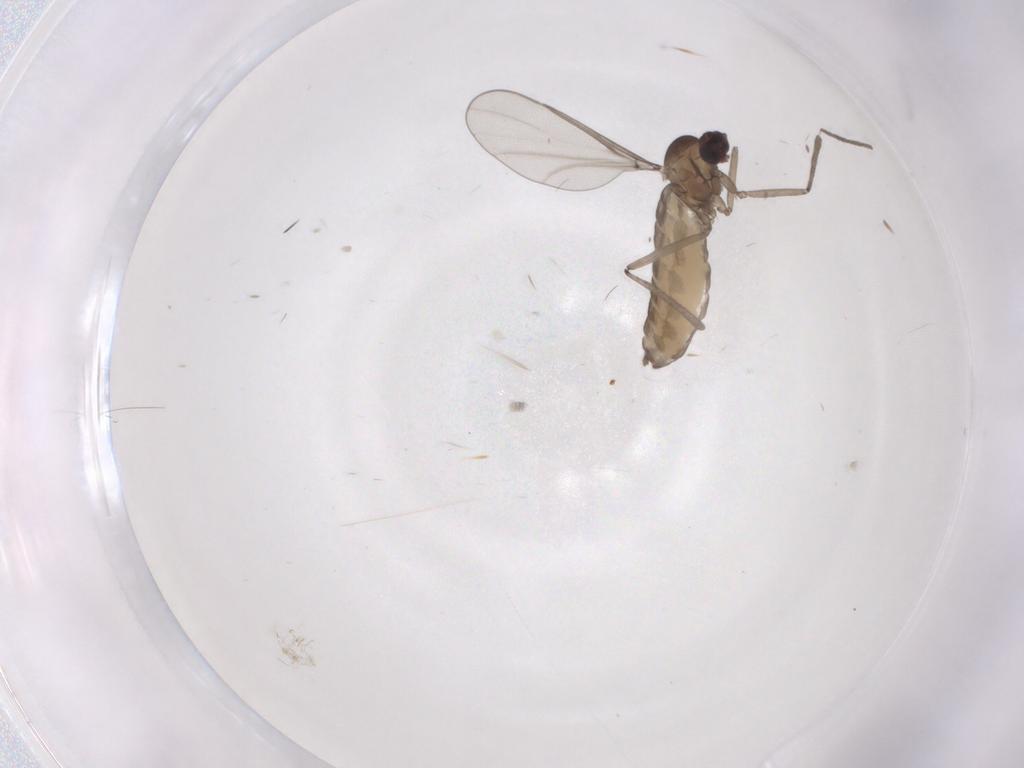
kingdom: Animalia
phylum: Arthropoda
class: Insecta
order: Diptera
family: Cecidomyiidae
